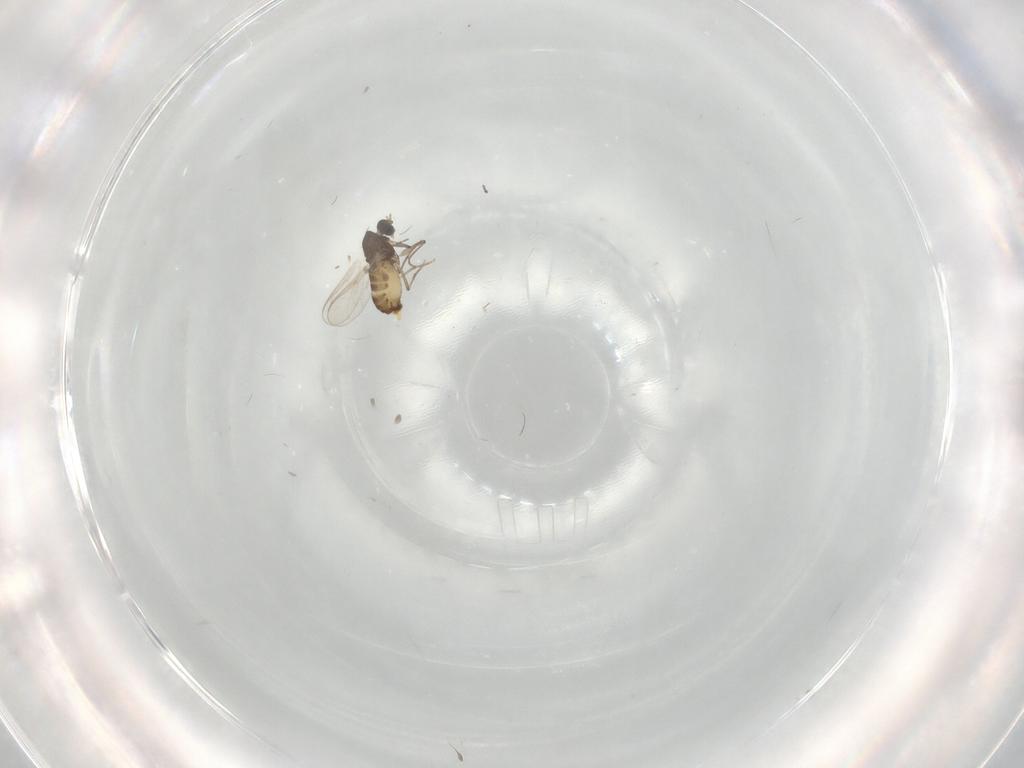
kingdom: Animalia
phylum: Arthropoda
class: Insecta
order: Diptera
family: Chironomidae
